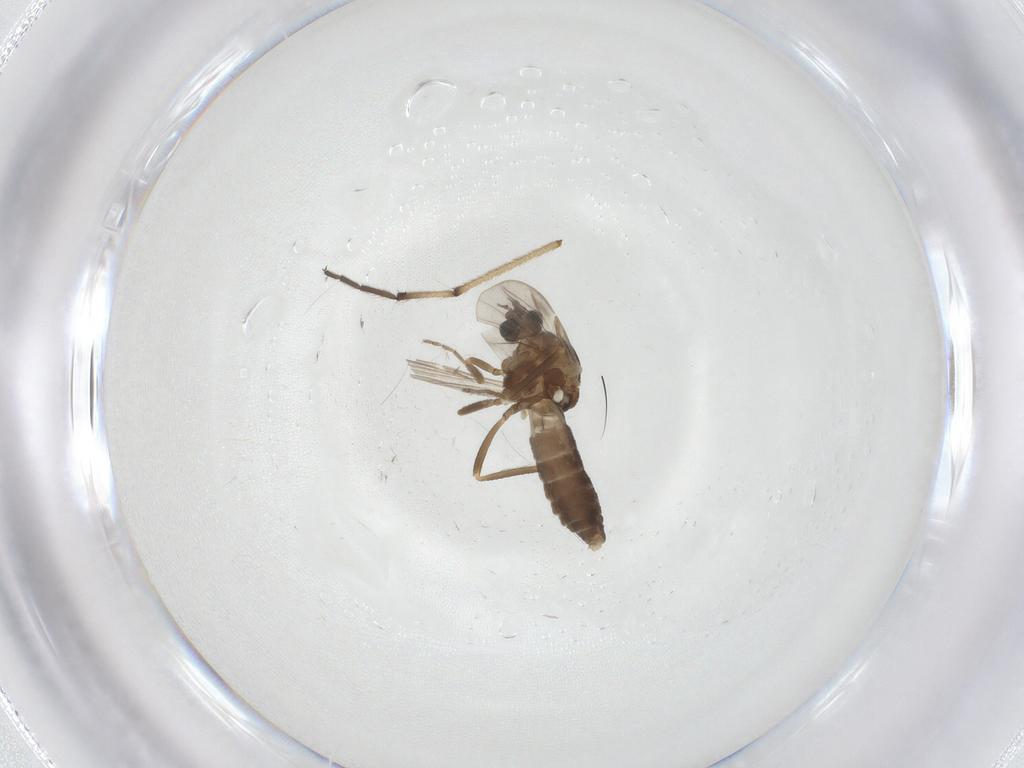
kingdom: Animalia
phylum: Arthropoda
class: Insecta
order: Diptera
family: Ceratopogonidae
